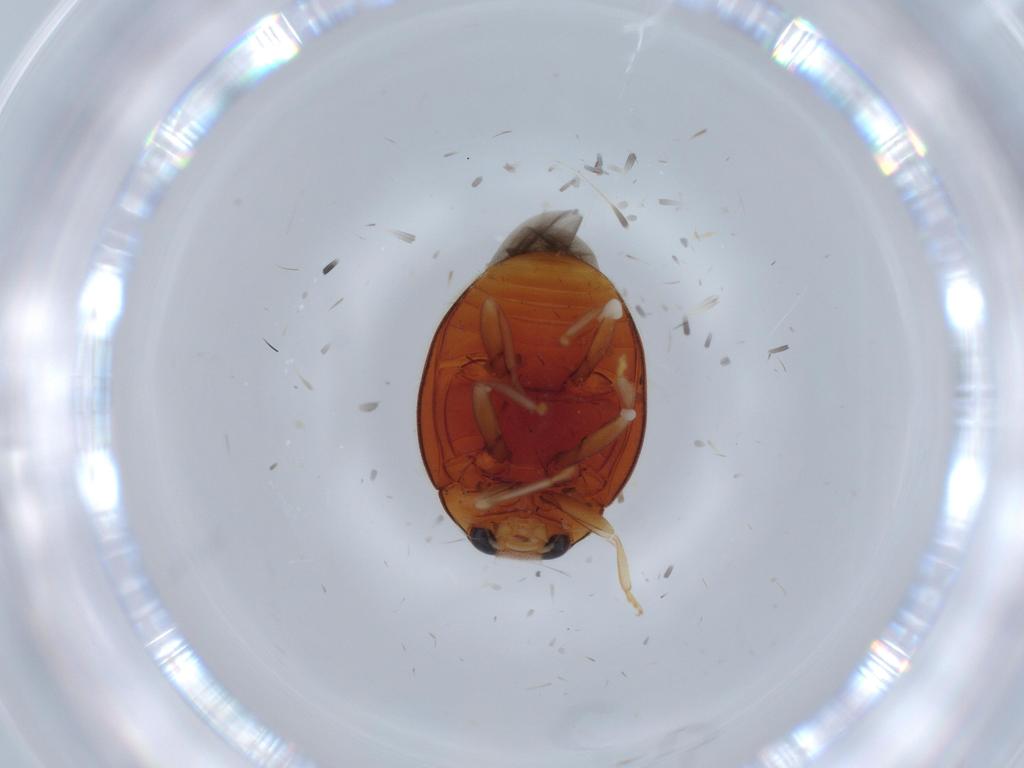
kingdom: Animalia
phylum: Arthropoda
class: Insecta
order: Coleoptera
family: Coccinellidae
